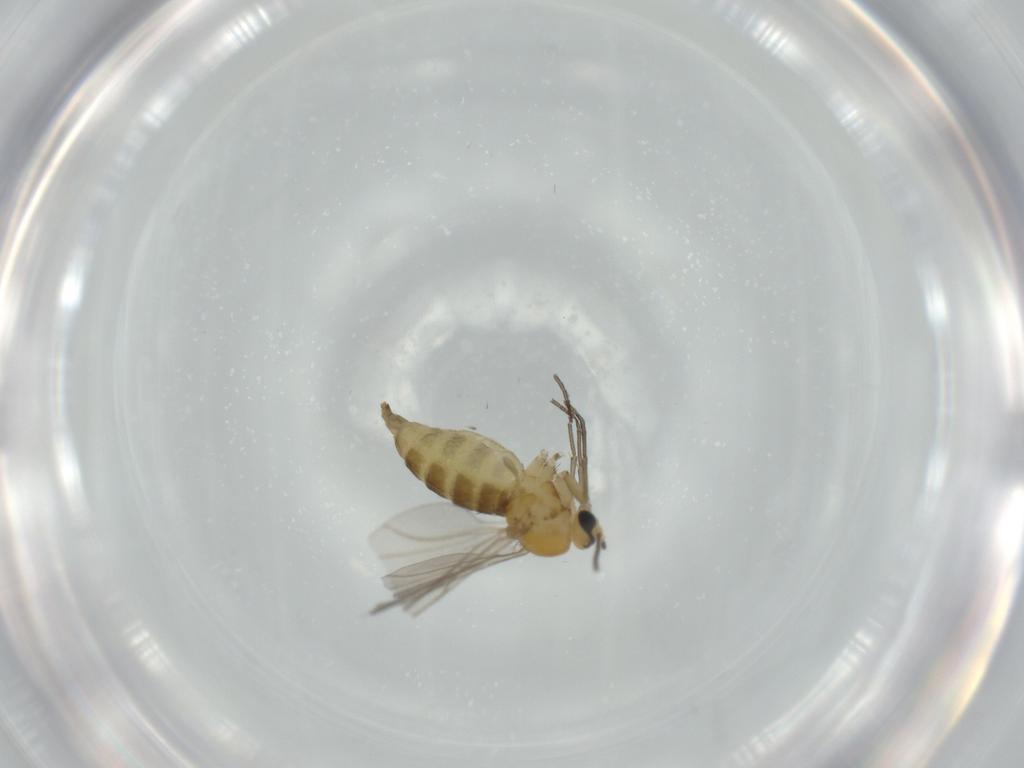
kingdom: Animalia
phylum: Arthropoda
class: Insecta
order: Diptera
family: Sciaridae
